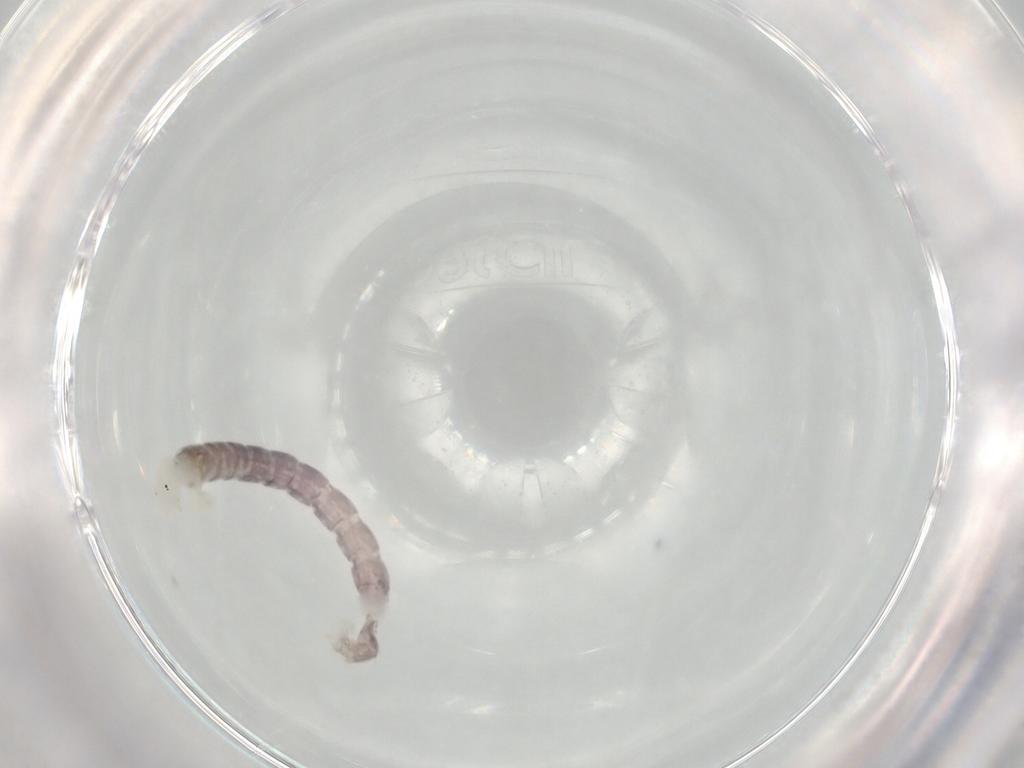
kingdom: Animalia
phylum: Arthropoda
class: Insecta
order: Diptera
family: Chironomidae
